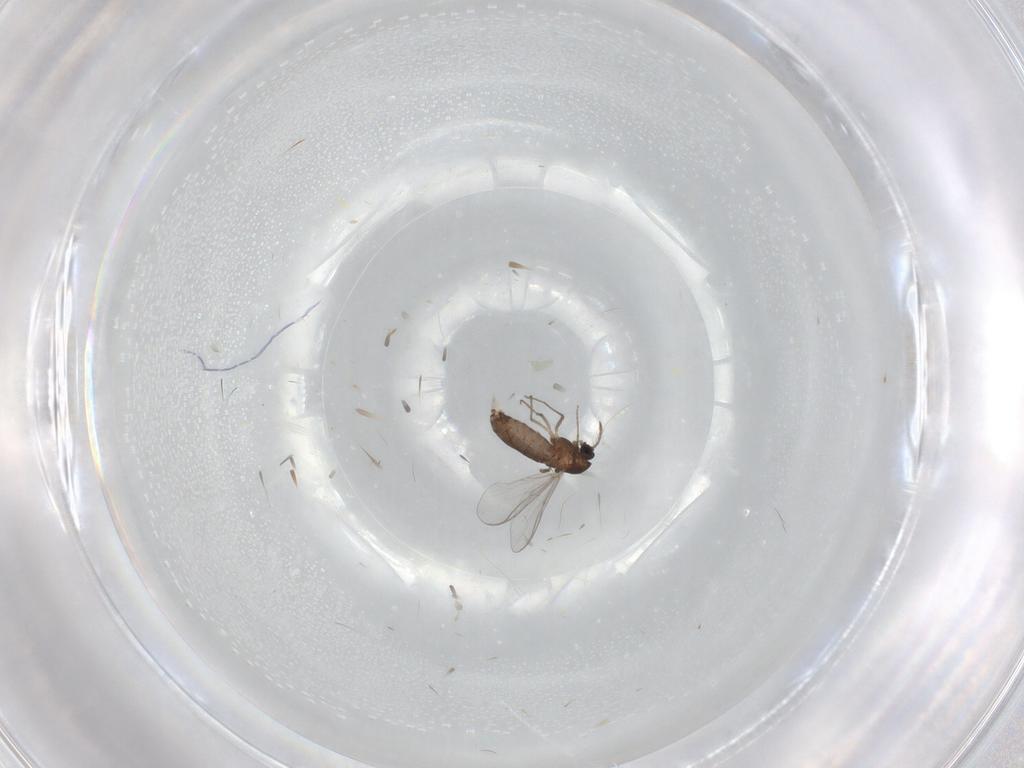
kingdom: Animalia
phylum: Arthropoda
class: Insecta
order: Diptera
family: Chironomidae
